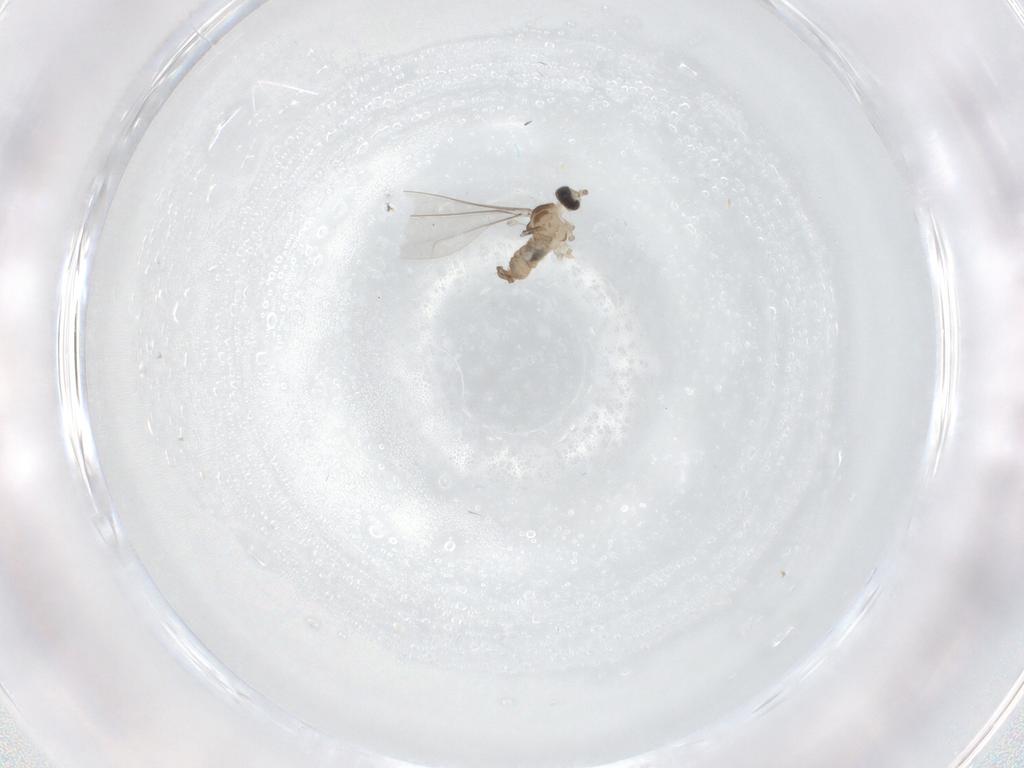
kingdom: Animalia
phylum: Arthropoda
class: Insecta
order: Diptera
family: Cecidomyiidae
